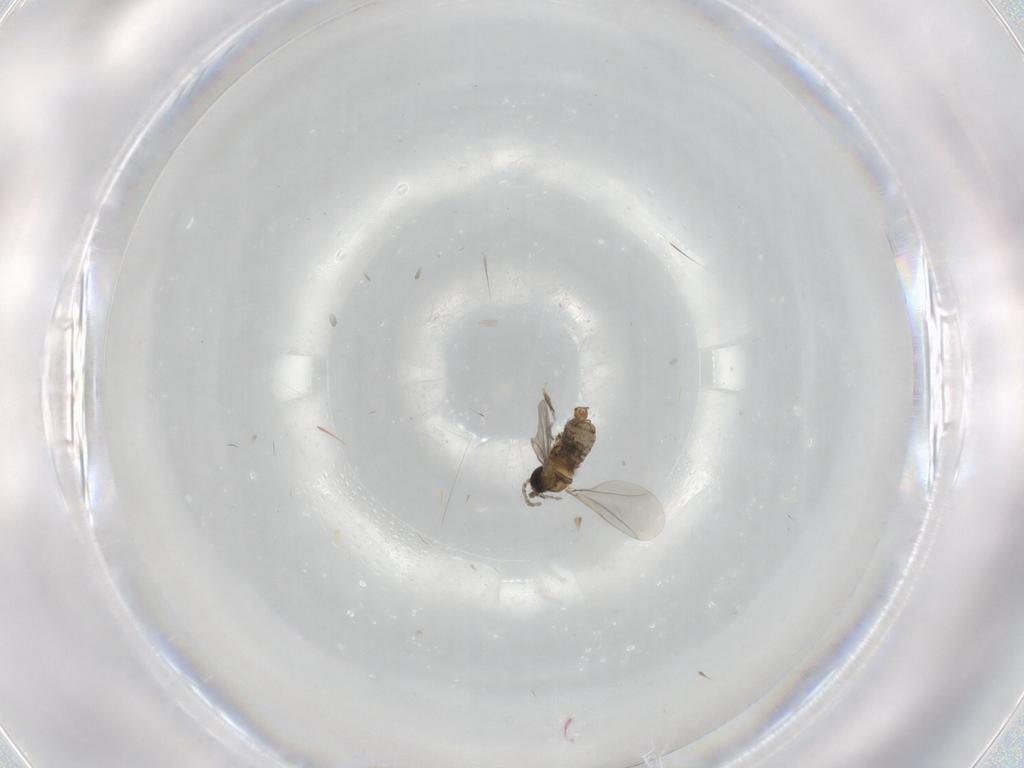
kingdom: Animalia
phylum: Arthropoda
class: Insecta
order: Diptera
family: Cecidomyiidae
